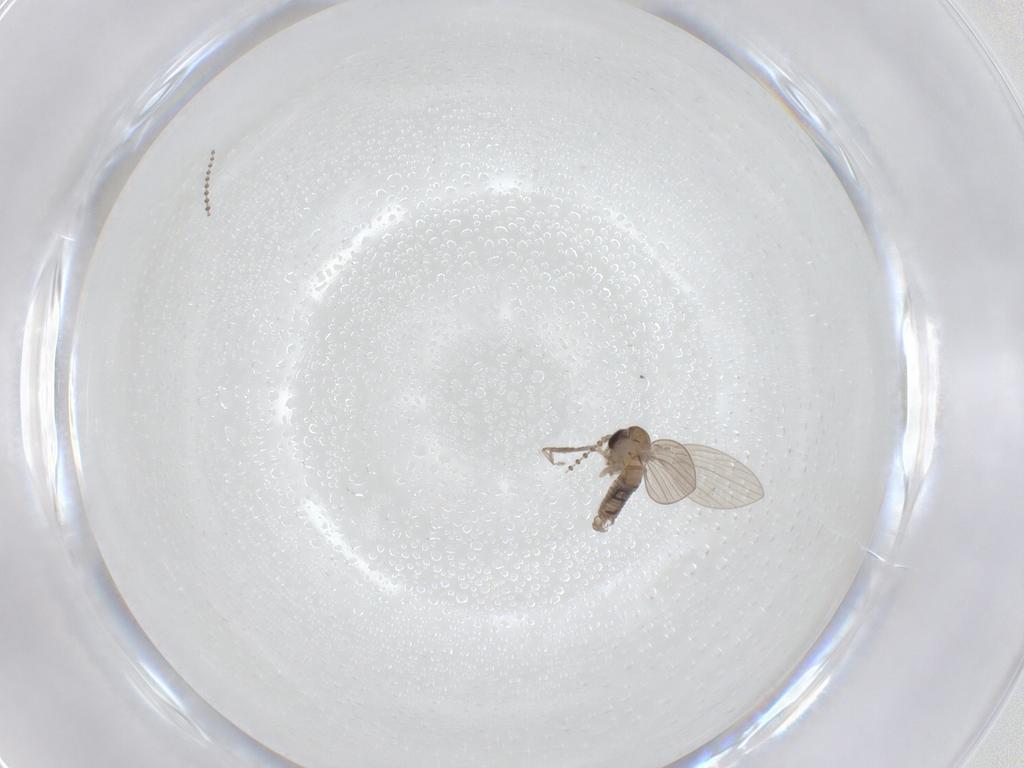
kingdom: Animalia
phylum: Arthropoda
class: Insecta
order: Diptera
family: Psychodidae
